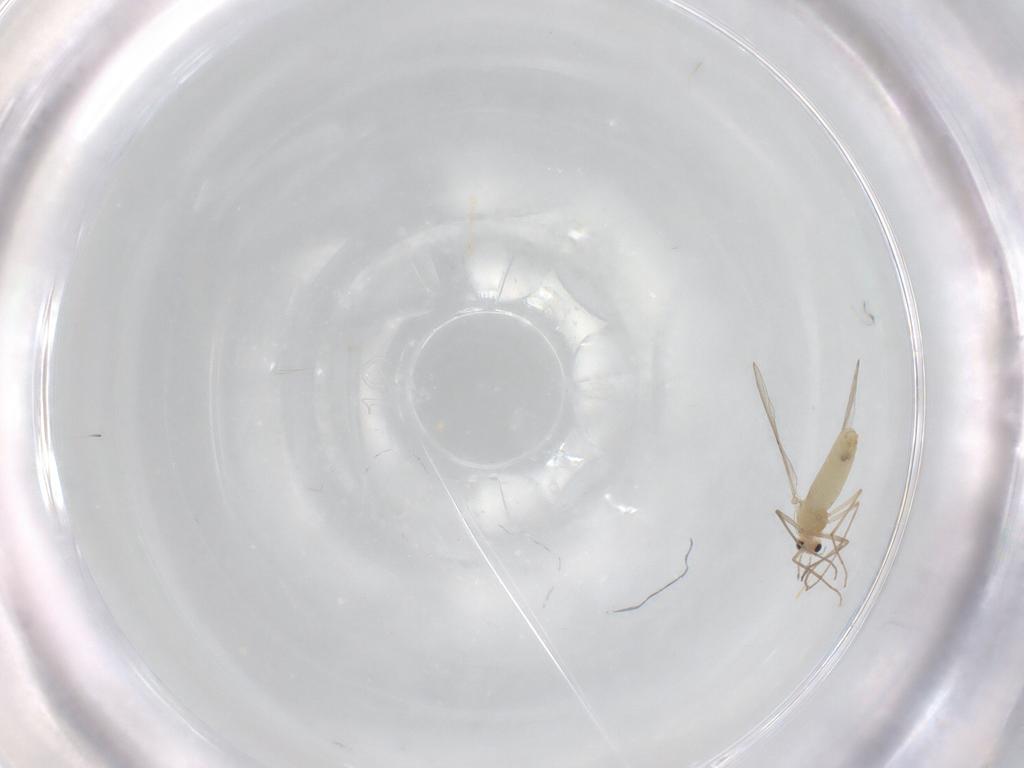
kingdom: Animalia
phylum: Arthropoda
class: Insecta
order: Diptera
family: Chironomidae
